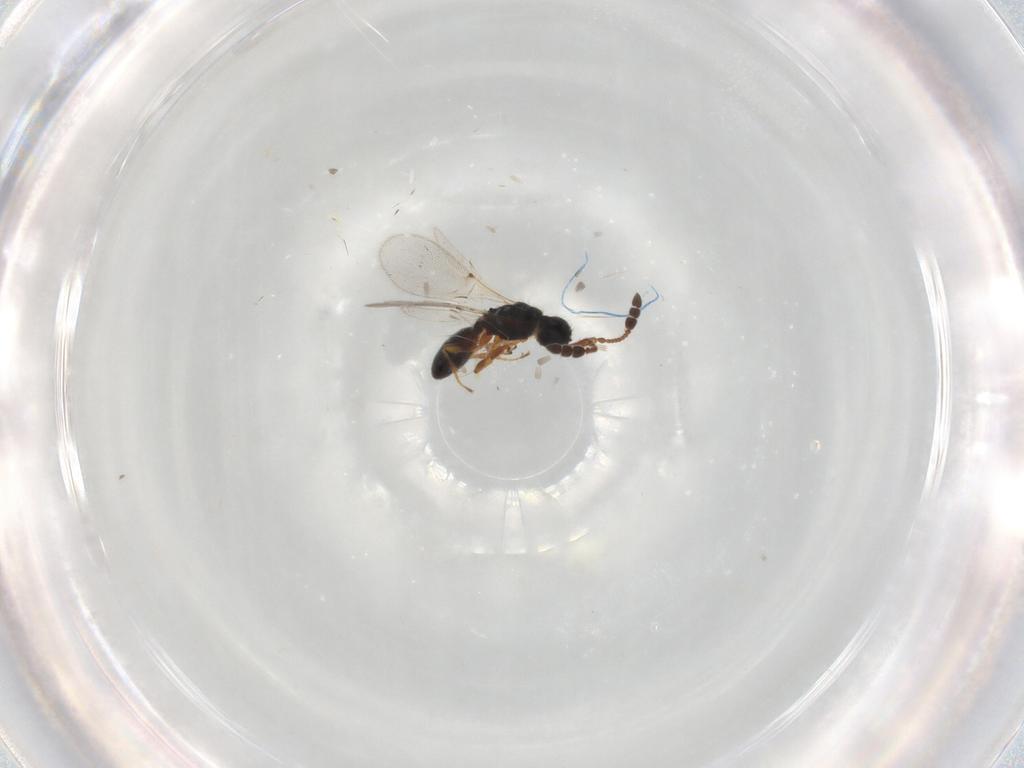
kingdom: Animalia
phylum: Arthropoda
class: Insecta
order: Hymenoptera
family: Diapriidae
